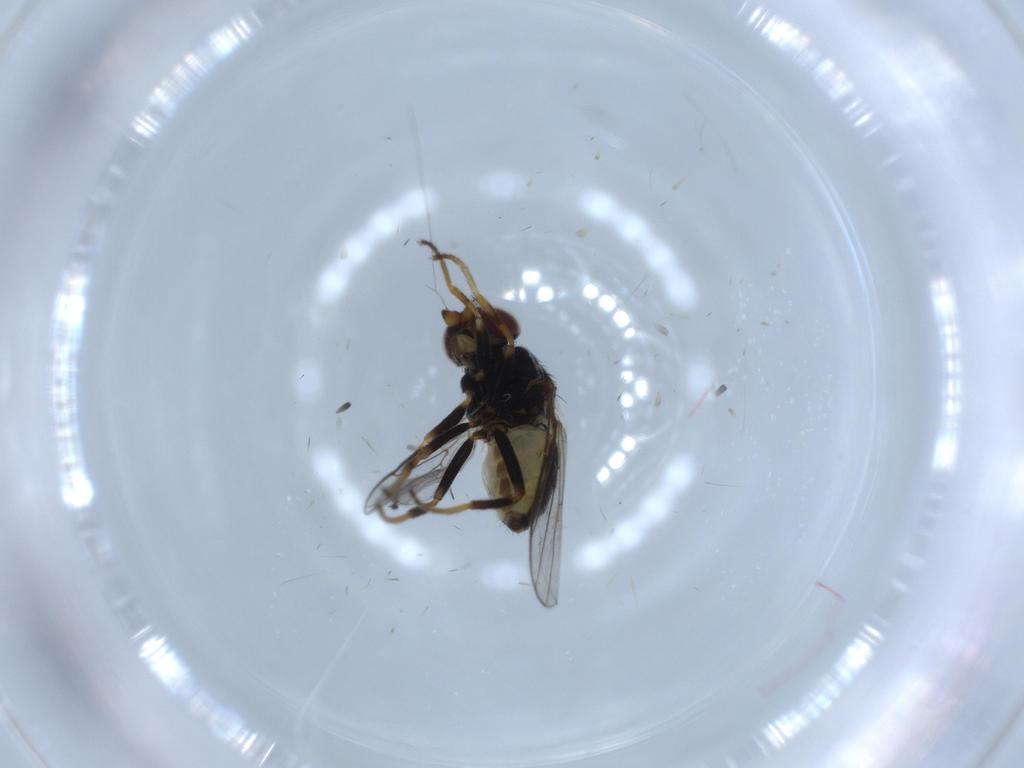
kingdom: Animalia
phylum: Arthropoda
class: Insecta
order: Diptera
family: Chloropidae
